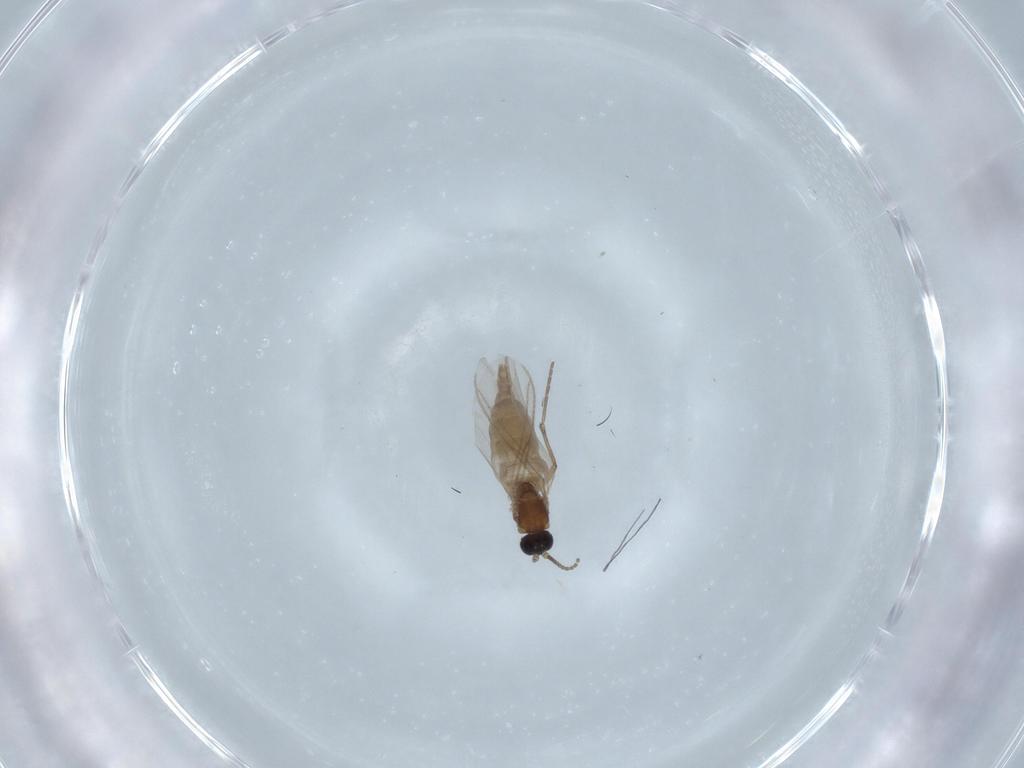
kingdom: Animalia
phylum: Arthropoda
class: Insecta
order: Diptera
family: Sciaridae
